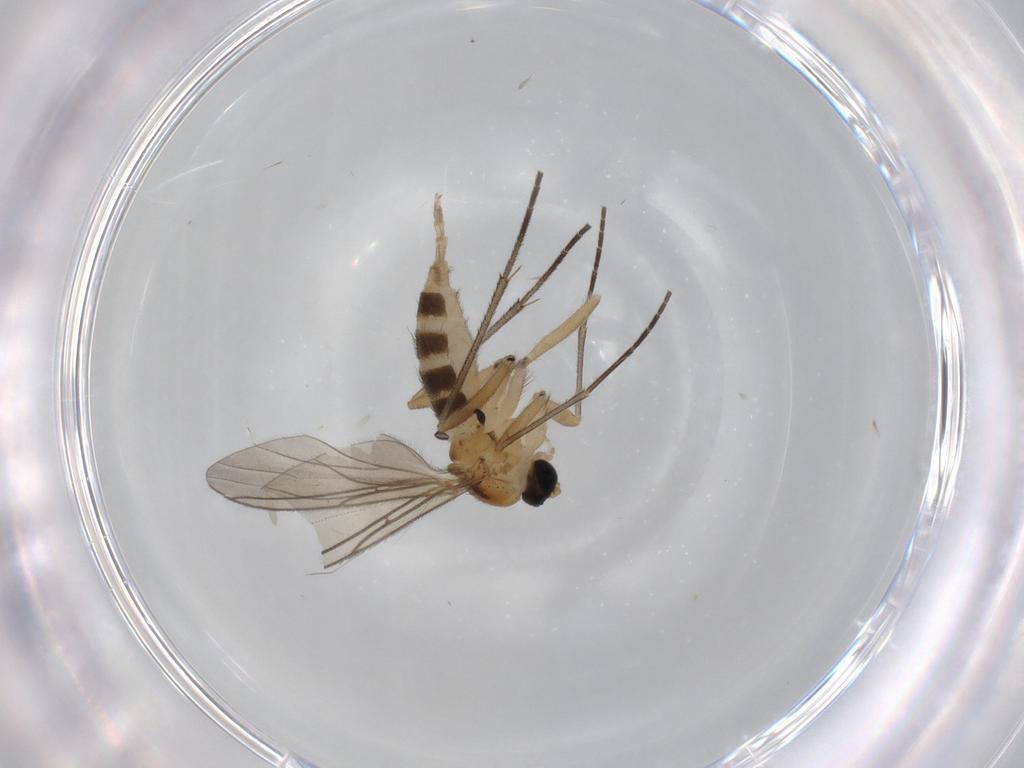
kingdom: Animalia
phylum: Arthropoda
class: Insecta
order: Diptera
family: Sciaridae
